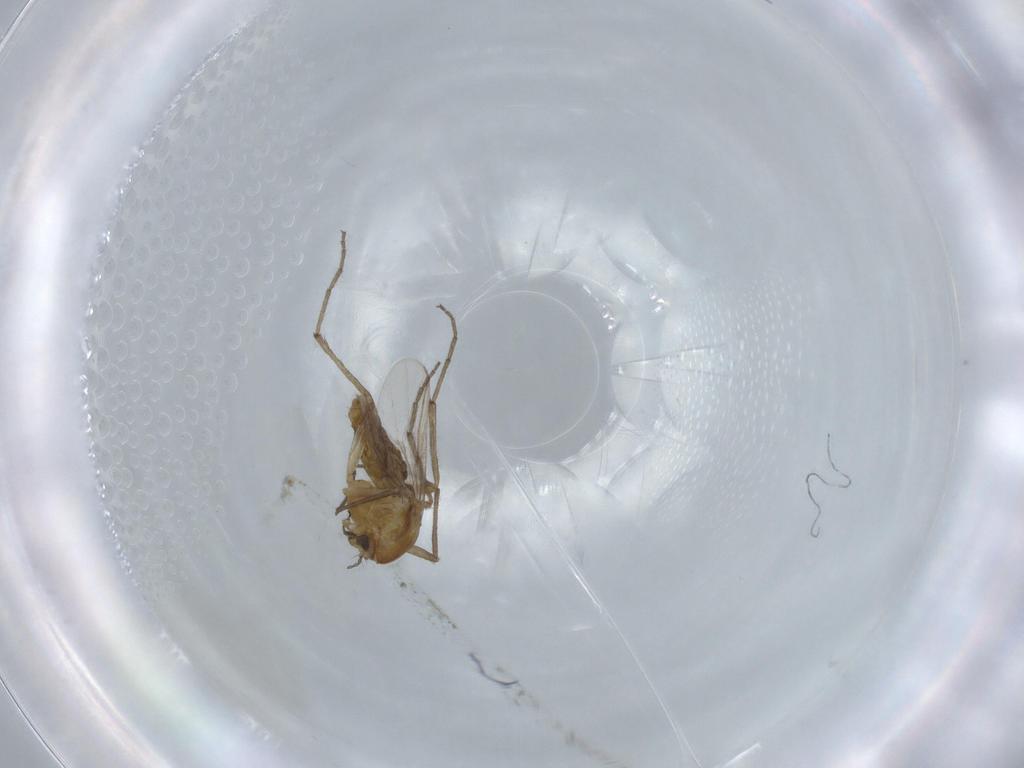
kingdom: Animalia
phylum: Arthropoda
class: Insecta
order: Diptera
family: Chironomidae
